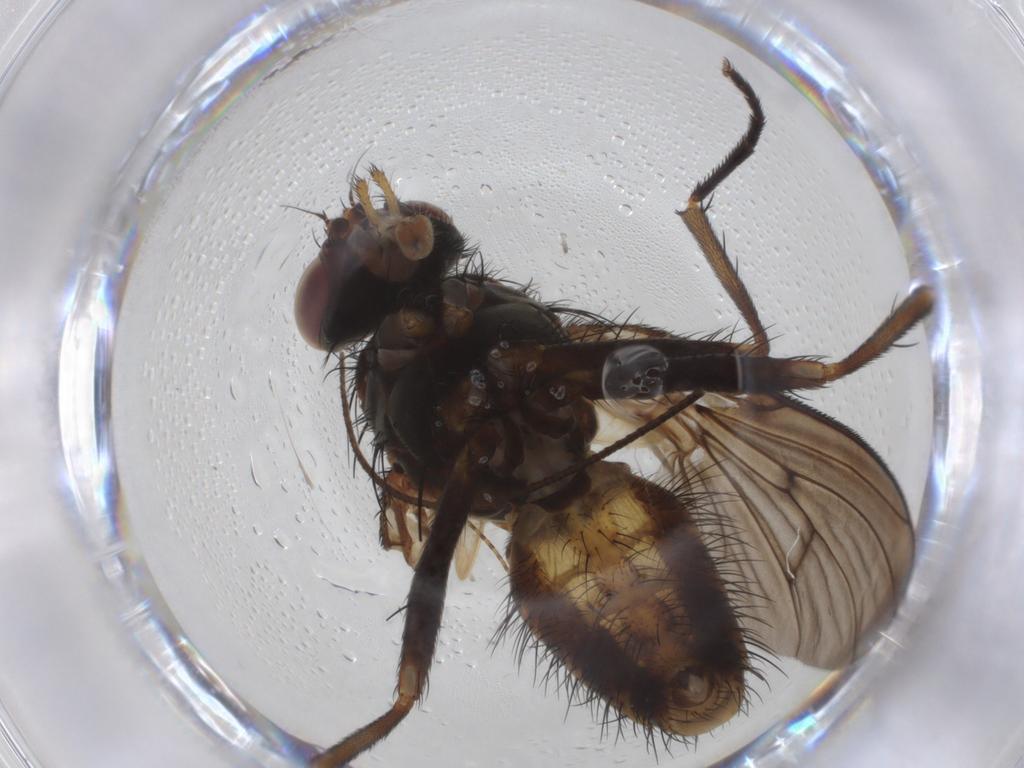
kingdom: Animalia
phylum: Arthropoda
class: Insecta
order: Diptera
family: Muscidae
